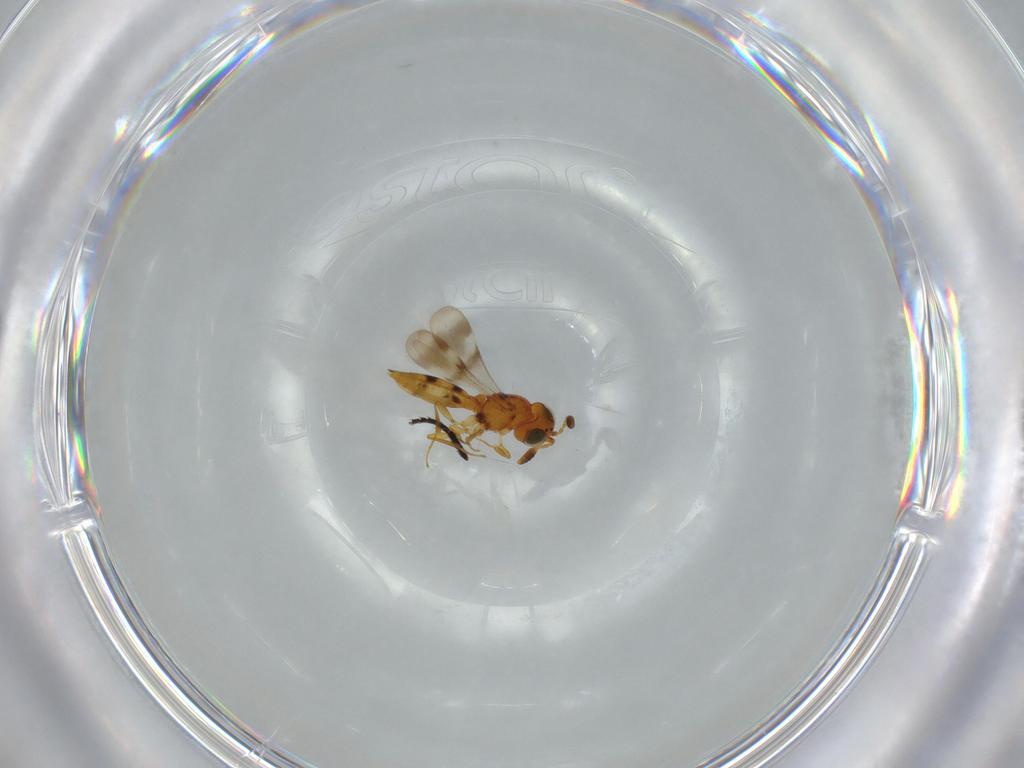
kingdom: Animalia
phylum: Arthropoda
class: Insecta
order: Hymenoptera
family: Scelionidae
